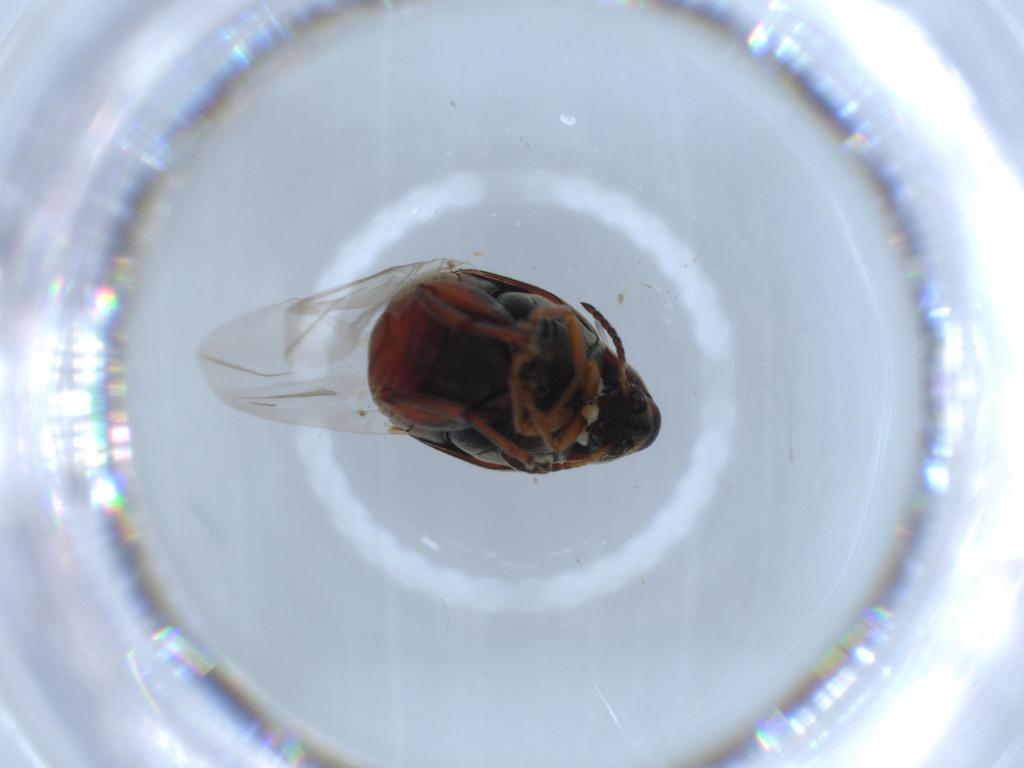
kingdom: Animalia
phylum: Arthropoda
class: Insecta
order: Coleoptera
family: Chrysomelidae
